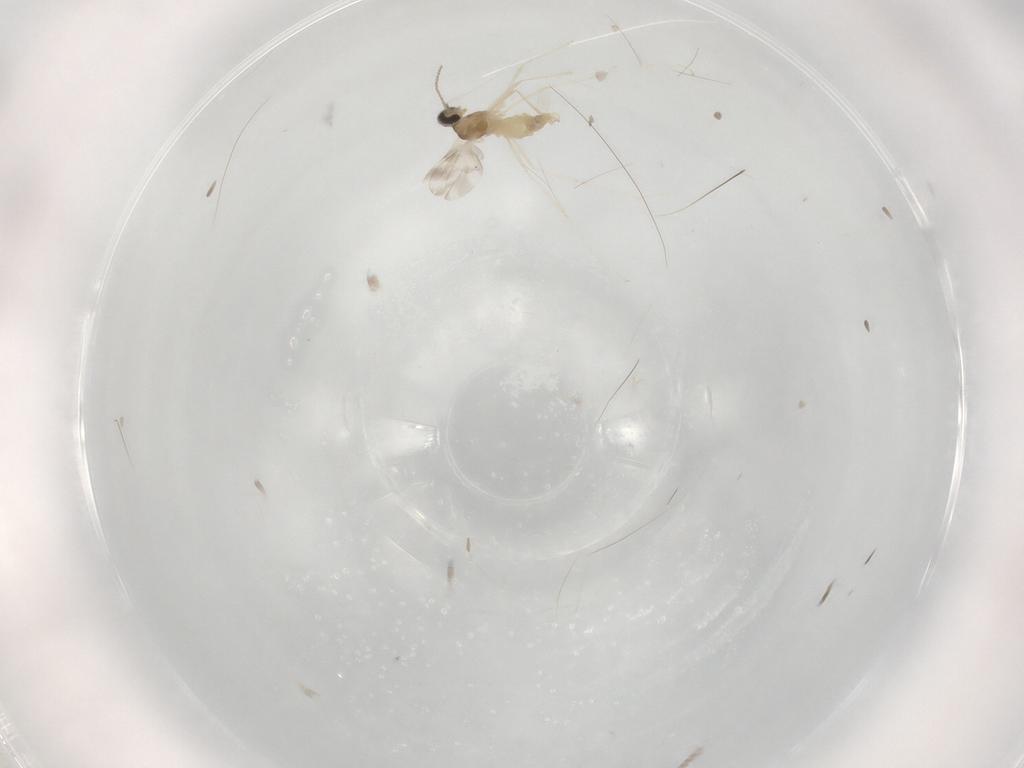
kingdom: Animalia
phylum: Arthropoda
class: Insecta
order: Diptera
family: Cecidomyiidae
